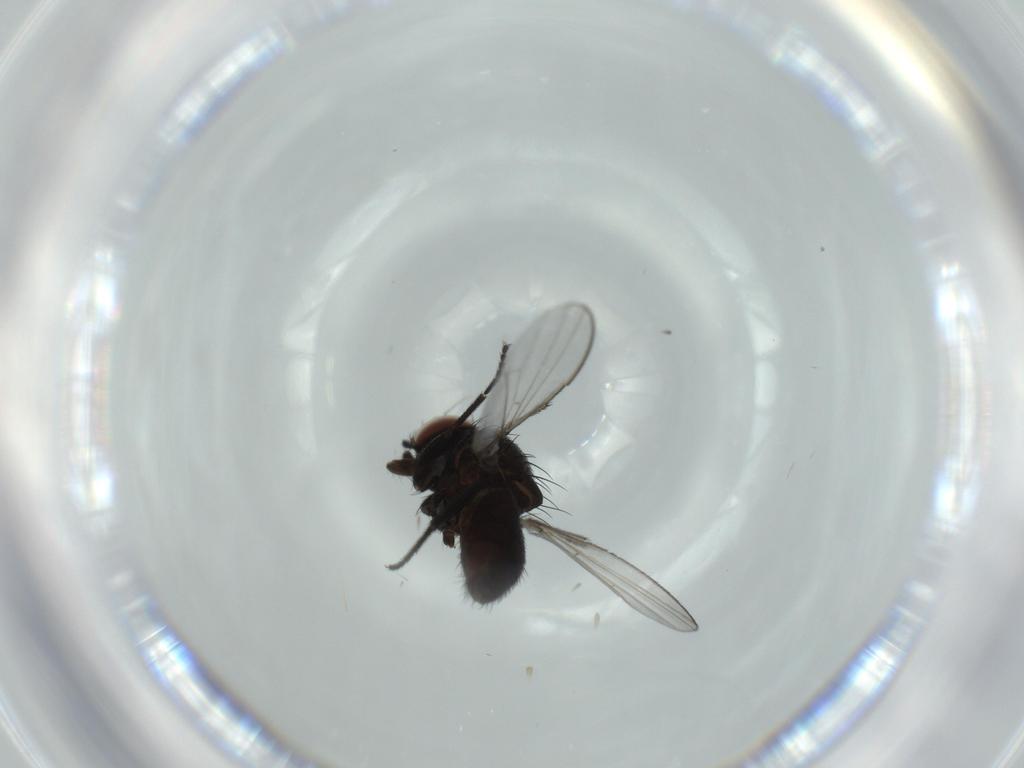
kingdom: Animalia
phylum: Arthropoda
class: Insecta
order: Diptera
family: Milichiidae
